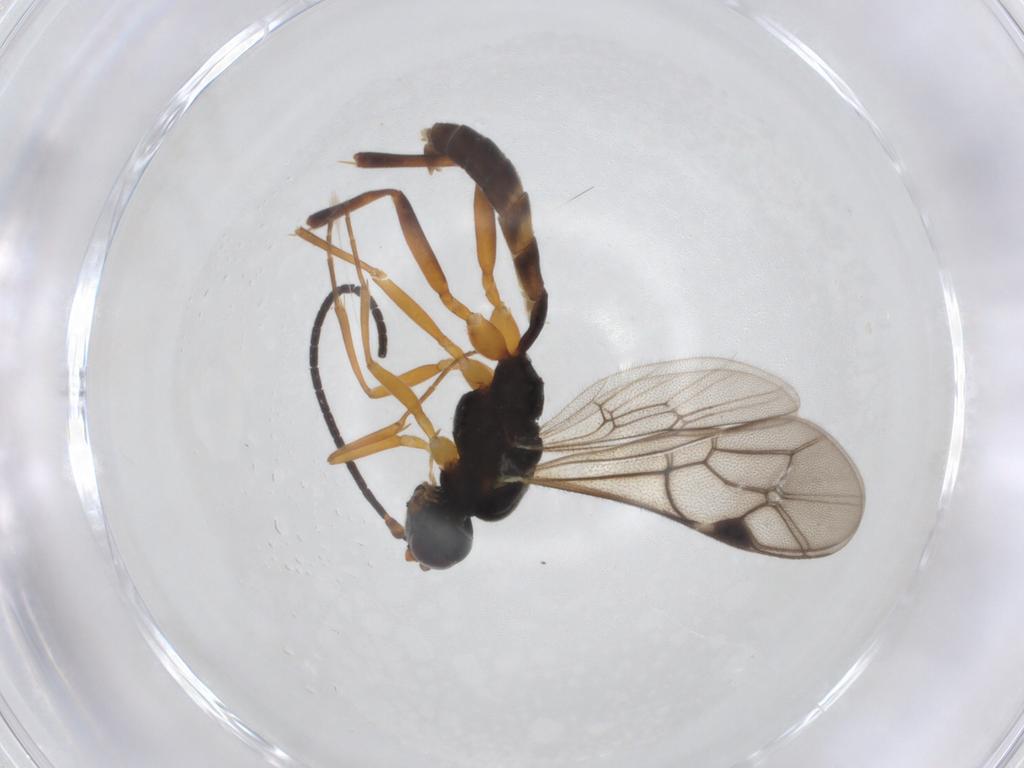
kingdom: Animalia
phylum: Arthropoda
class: Insecta
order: Hymenoptera
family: Ichneumonidae
